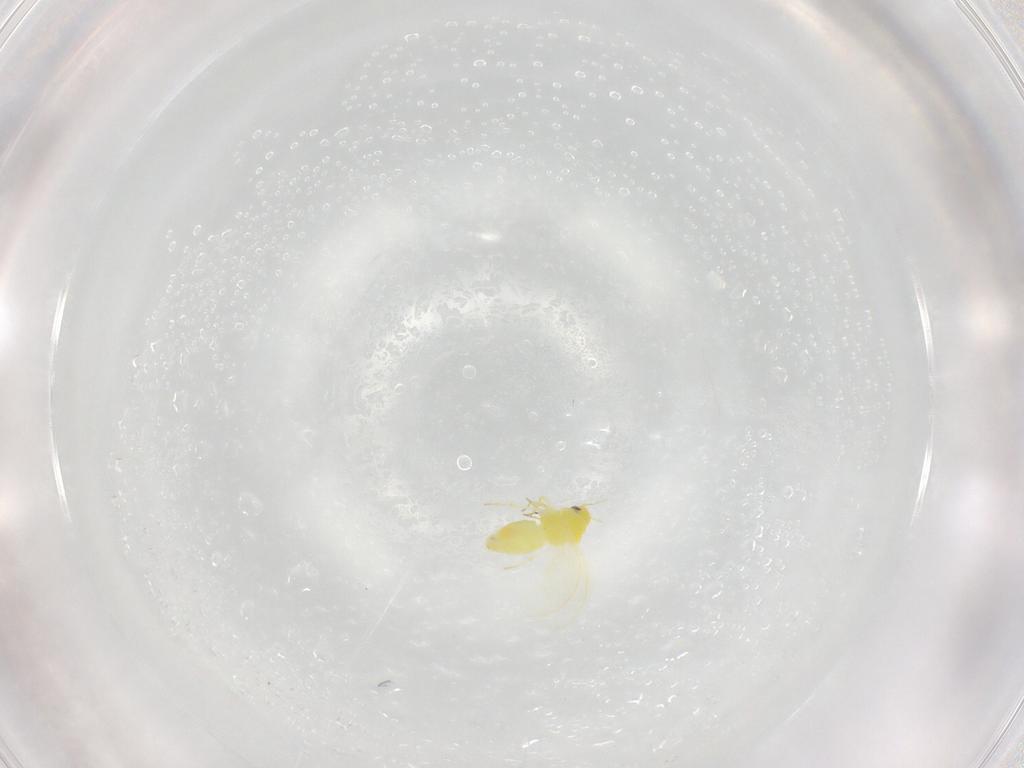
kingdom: Animalia
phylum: Arthropoda
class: Insecta
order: Hemiptera
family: Aleyrodidae
